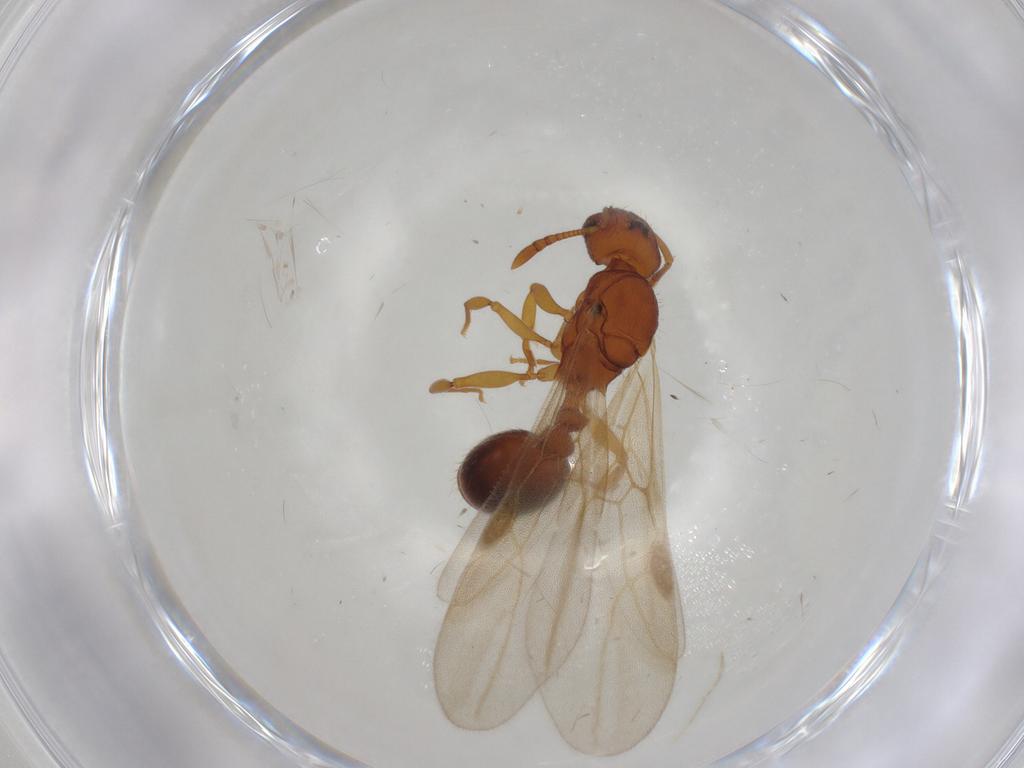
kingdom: Animalia
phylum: Arthropoda
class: Insecta
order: Hymenoptera
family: Formicidae
